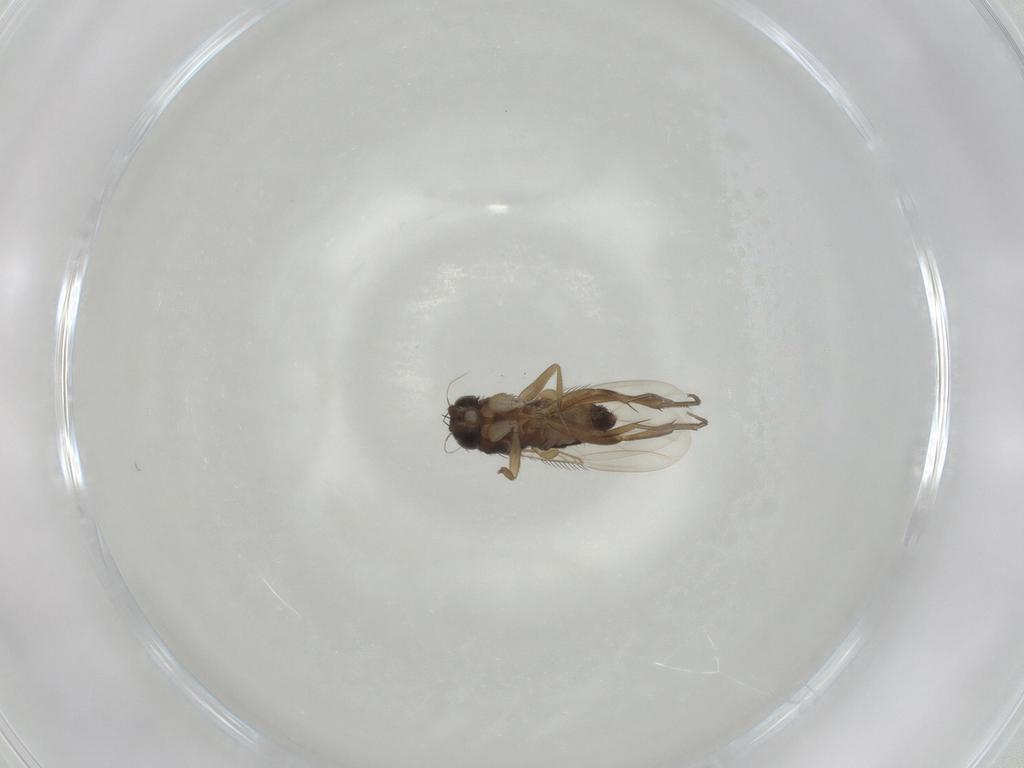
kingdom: Animalia
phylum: Arthropoda
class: Insecta
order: Diptera
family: Phoridae
